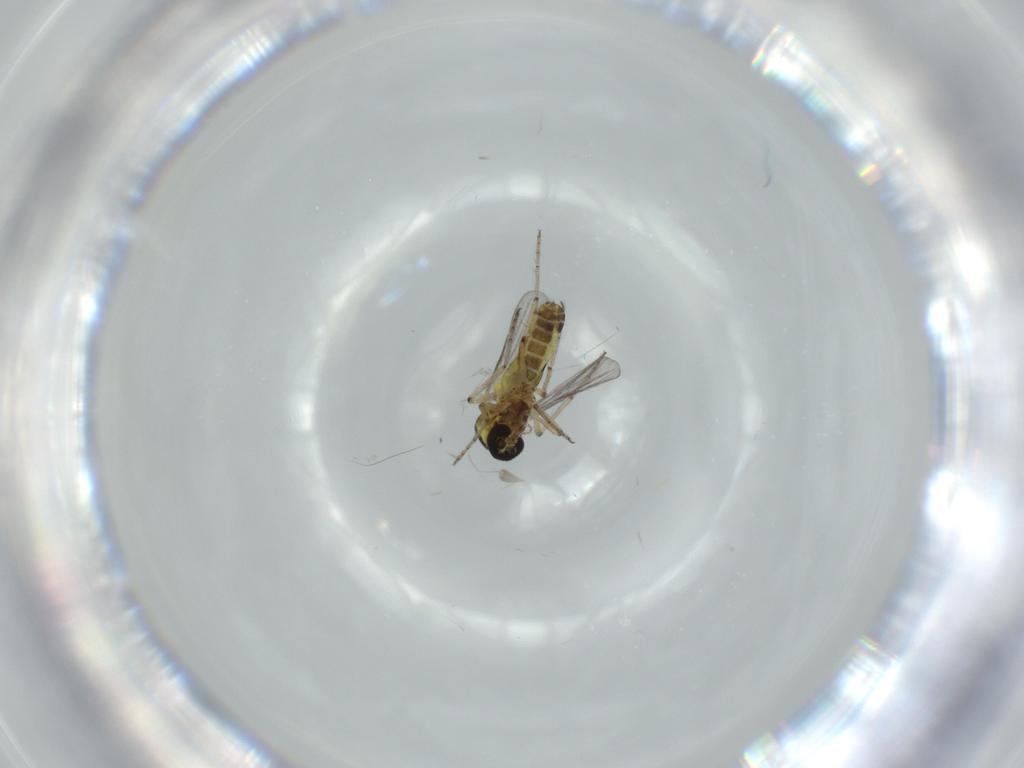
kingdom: Animalia
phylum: Arthropoda
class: Insecta
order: Diptera
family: Ceratopogonidae
